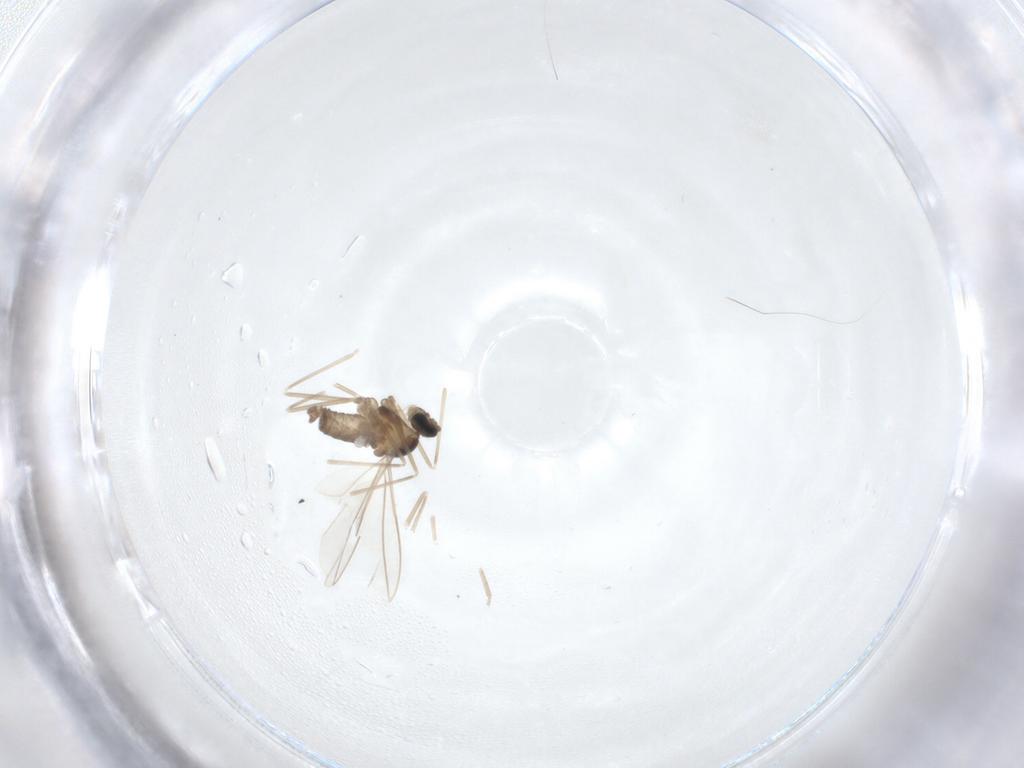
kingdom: Animalia
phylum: Arthropoda
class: Insecta
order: Diptera
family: Cecidomyiidae
